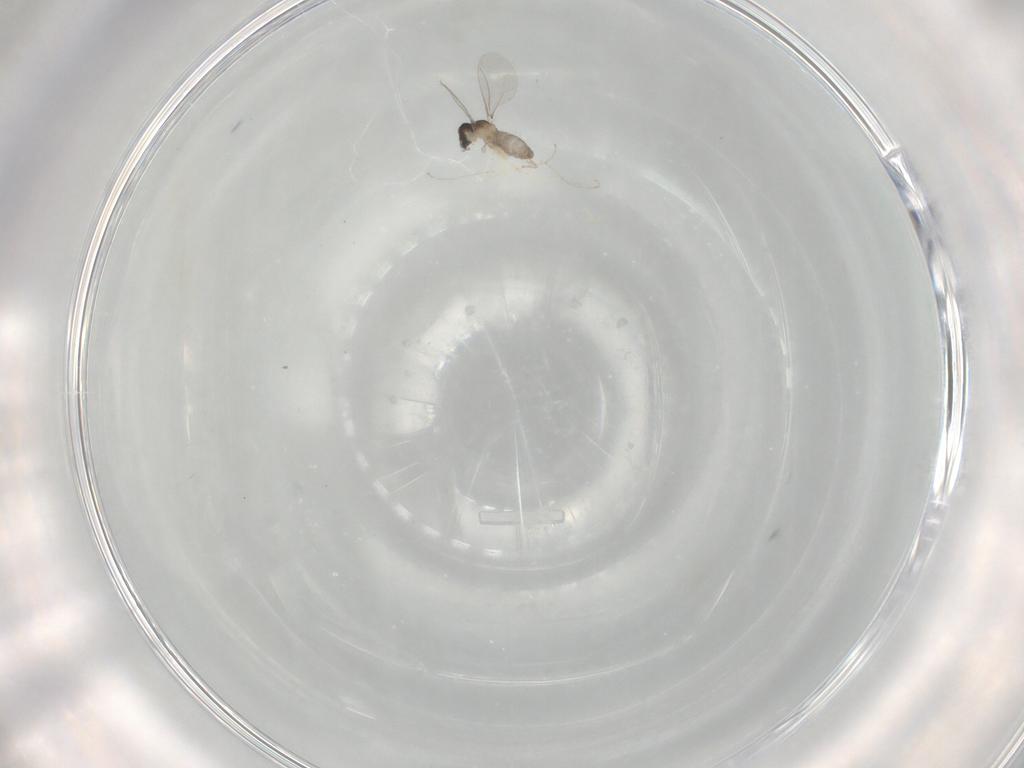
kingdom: Animalia
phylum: Arthropoda
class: Insecta
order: Diptera
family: Cecidomyiidae
